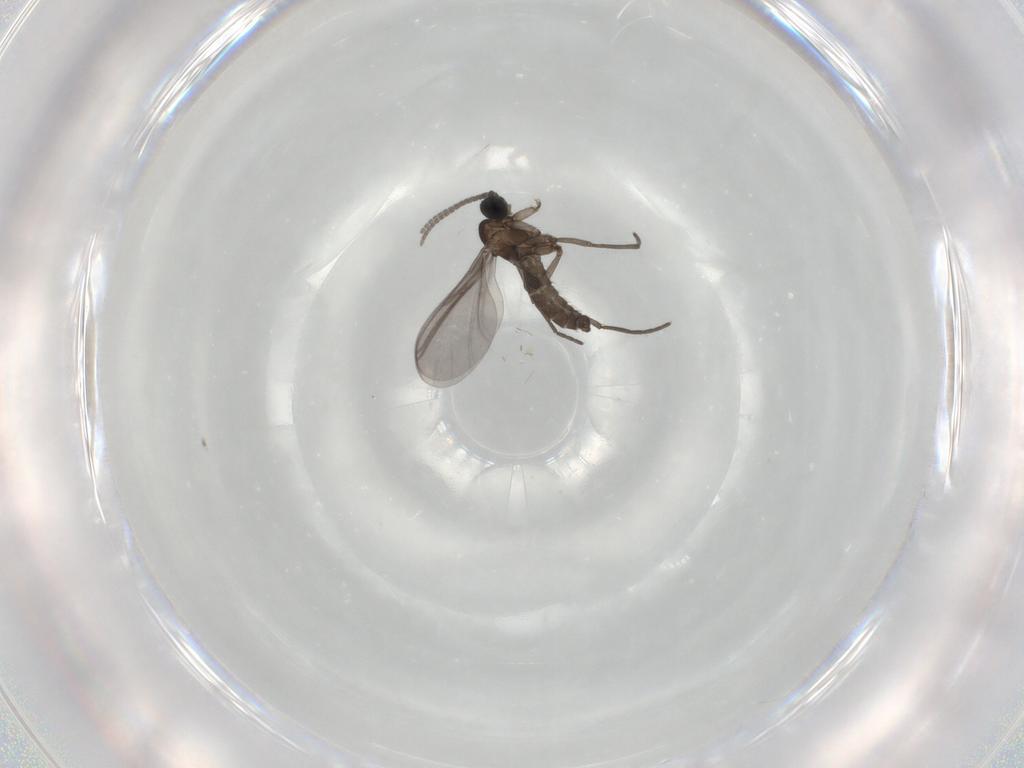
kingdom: Animalia
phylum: Arthropoda
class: Insecta
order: Diptera
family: Sciaridae
